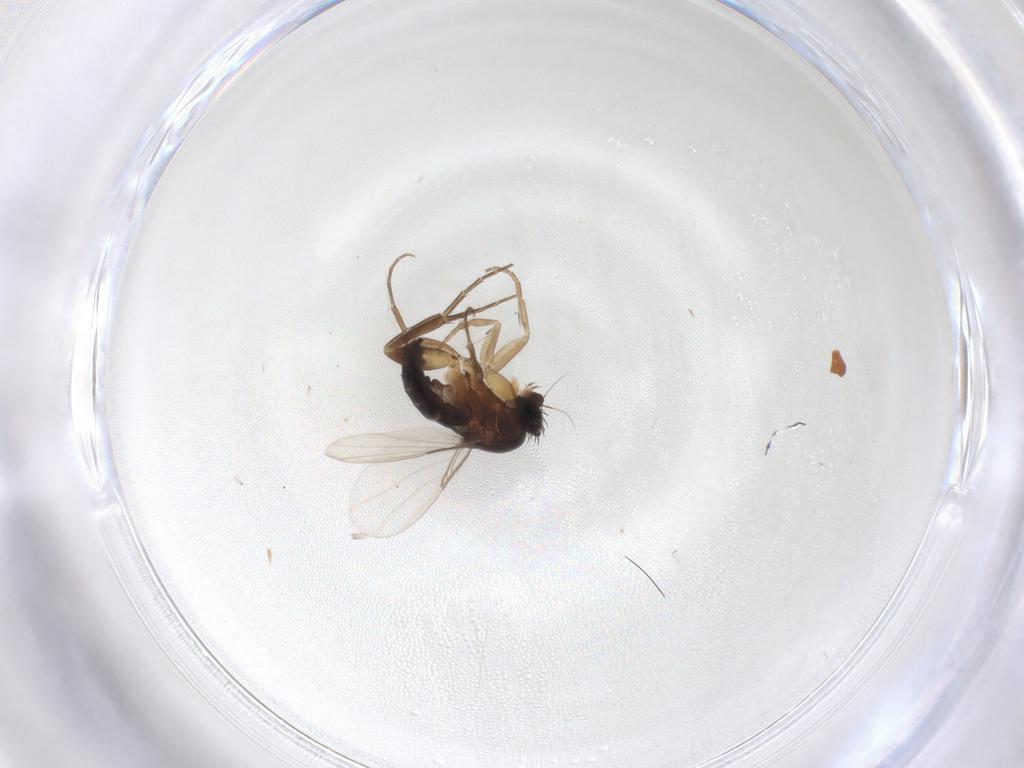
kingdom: Animalia
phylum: Arthropoda
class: Insecta
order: Diptera
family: Phoridae
